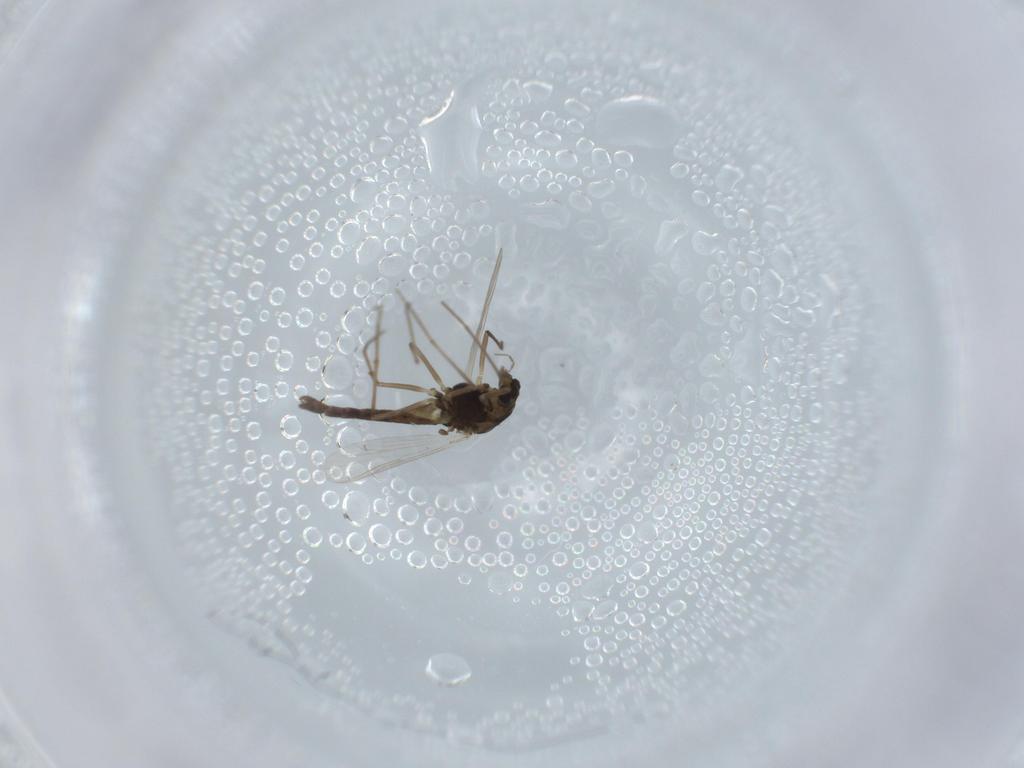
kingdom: Animalia
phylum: Arthropoda
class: Insecta
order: Diptera
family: Chironomidae
